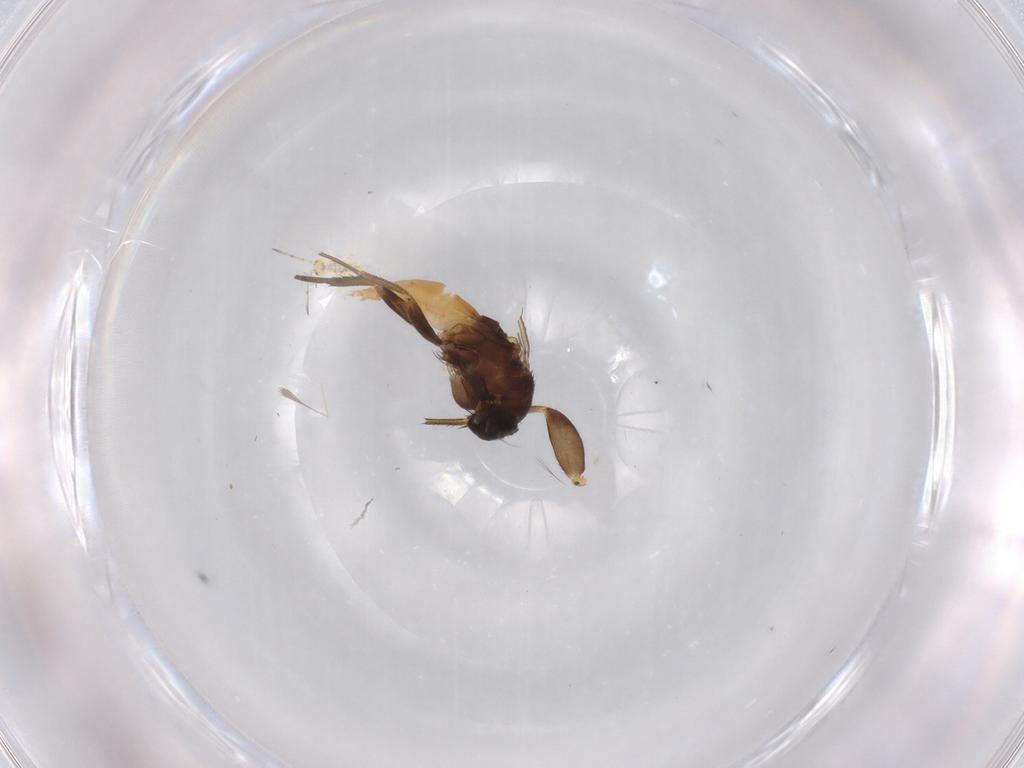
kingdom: Animalia
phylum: Arthropoda
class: Insecta
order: Diptera
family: Phoridae
